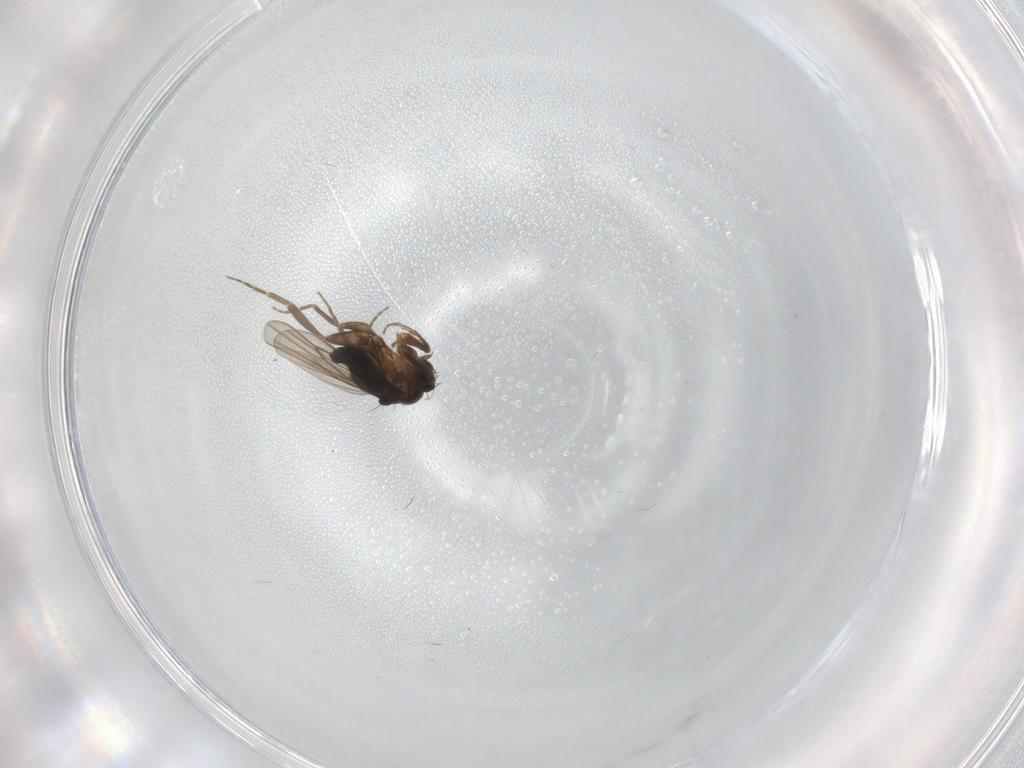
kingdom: Animalia
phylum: Arthropoda
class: Insecta
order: Diptera
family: Phoridae
